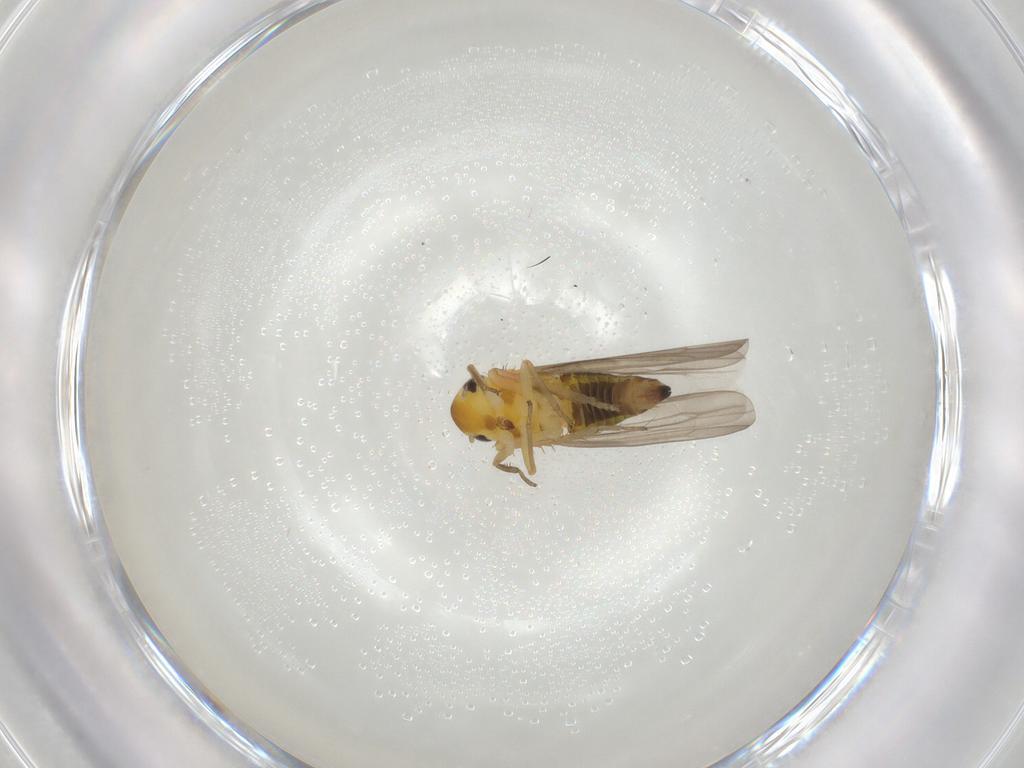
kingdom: Animalia
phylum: Arthropoda
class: Insecta
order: Hemiptera
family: Cicadellidae
